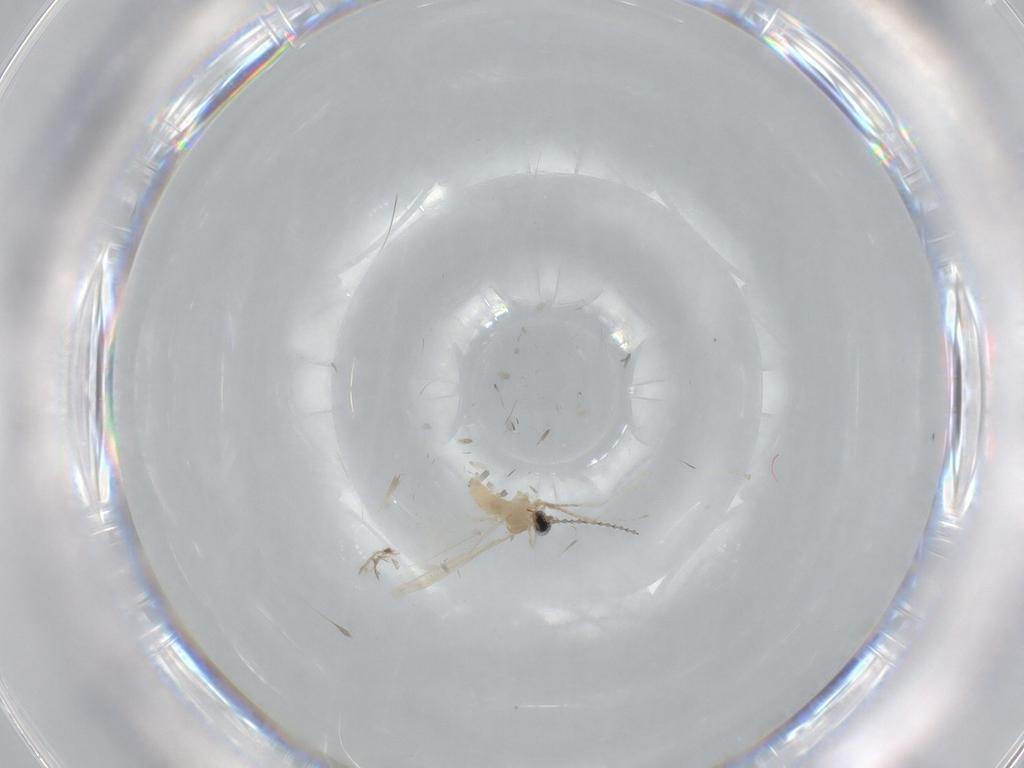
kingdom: Animalia
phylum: Arthropoda
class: Insecta
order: Diptera
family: Sciaridae
